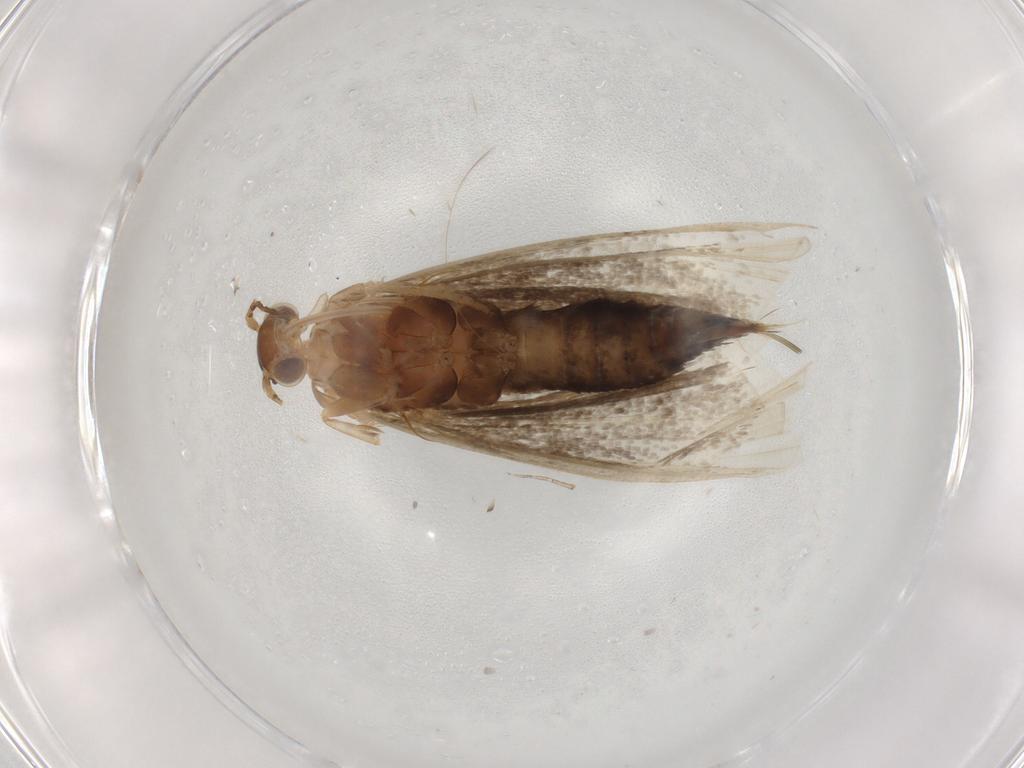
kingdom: Animalia
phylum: Arthropoda
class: Insecta
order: Lepidoptera
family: Choreutidae
